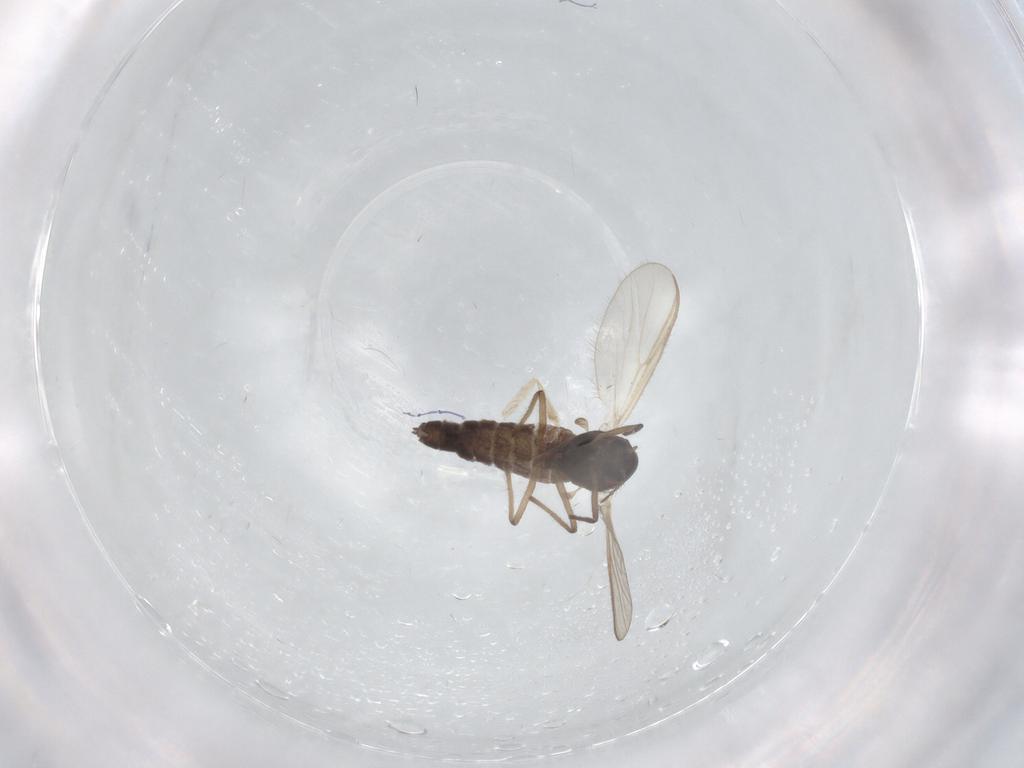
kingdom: Animalia
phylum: Arthropoda
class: Insecta
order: Diptera
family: Chironomidae
